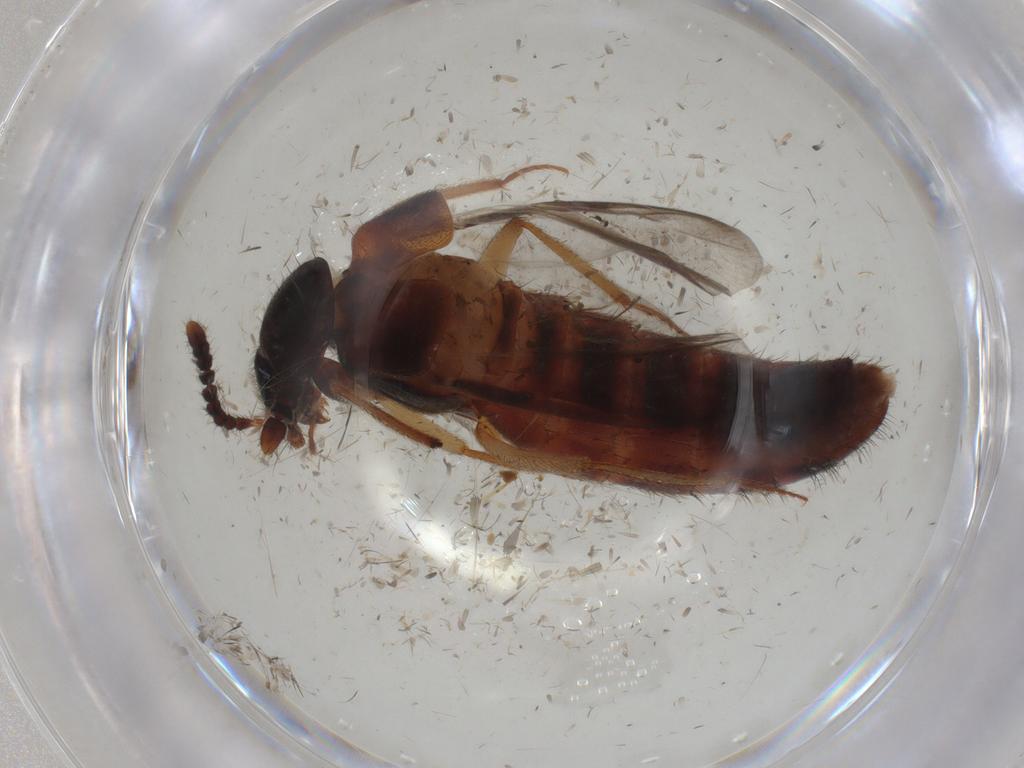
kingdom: Animalia
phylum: Arthropoda
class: Insecta
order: Coleoptera
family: Staphylinidae
